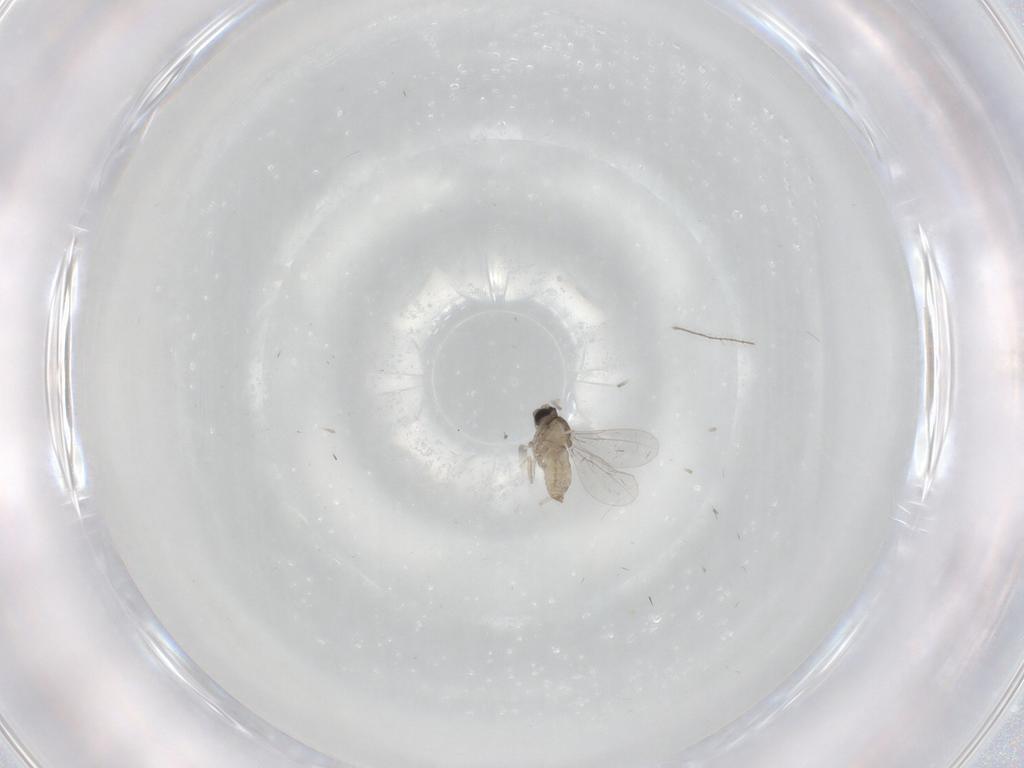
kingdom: Animalia
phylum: Arthropoda
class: Insecta
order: Diptera
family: Cecidomyiidae
